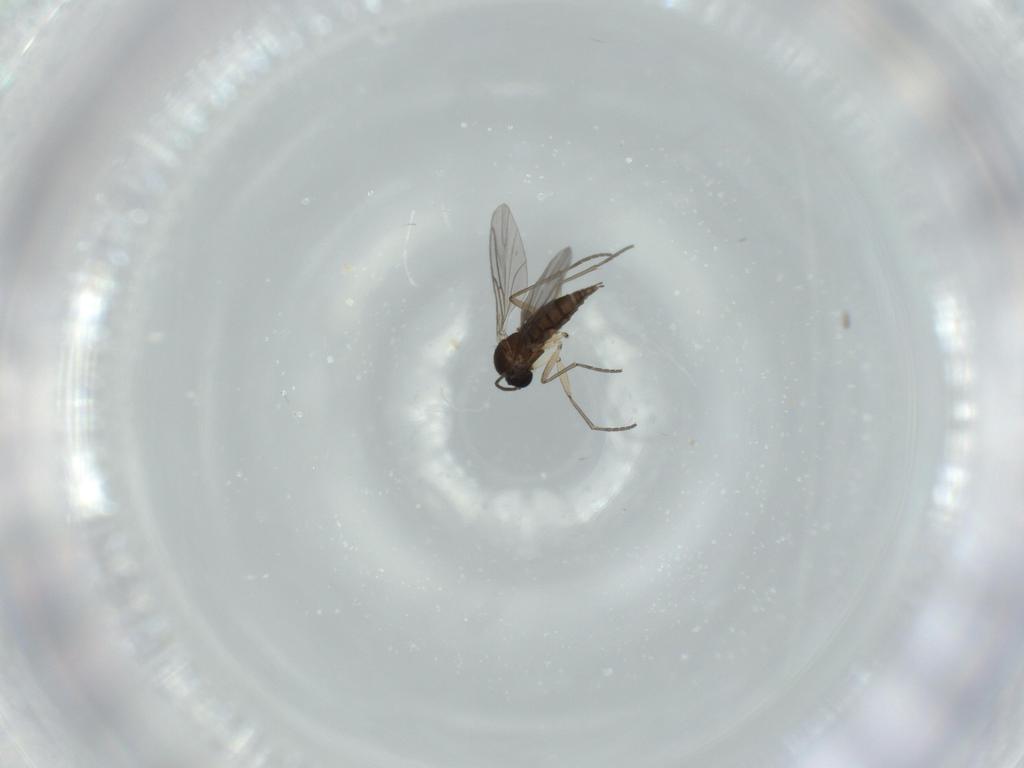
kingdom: Animalia
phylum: Arthropoda
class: Insecta
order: Diptera
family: Sciaridae
